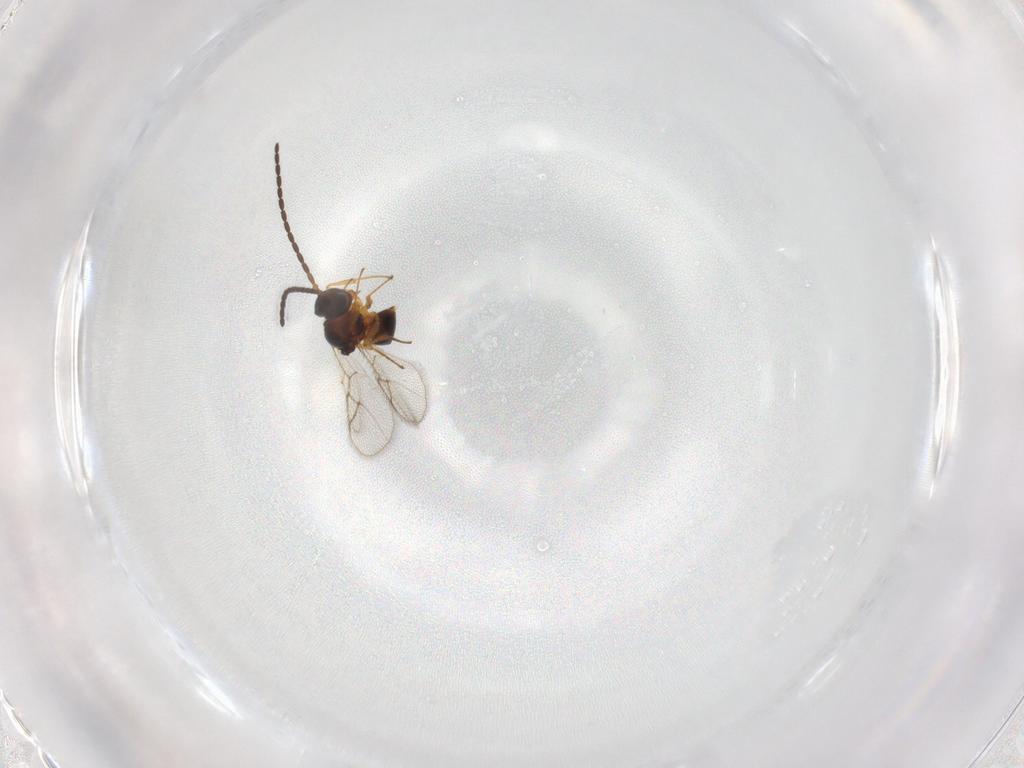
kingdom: Animalia
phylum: Arthropoda
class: Insecta
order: Hymenoptera
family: Figitidae
